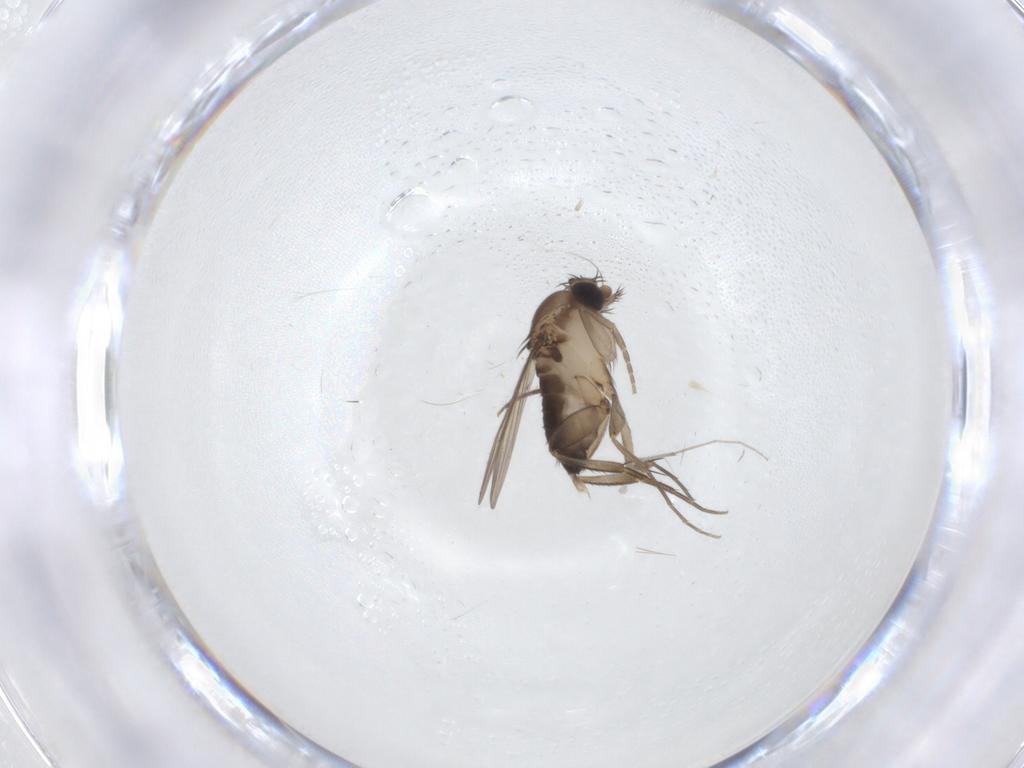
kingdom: Animalia
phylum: Arthropoda
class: Insecta
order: Diptera
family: Phoridae
